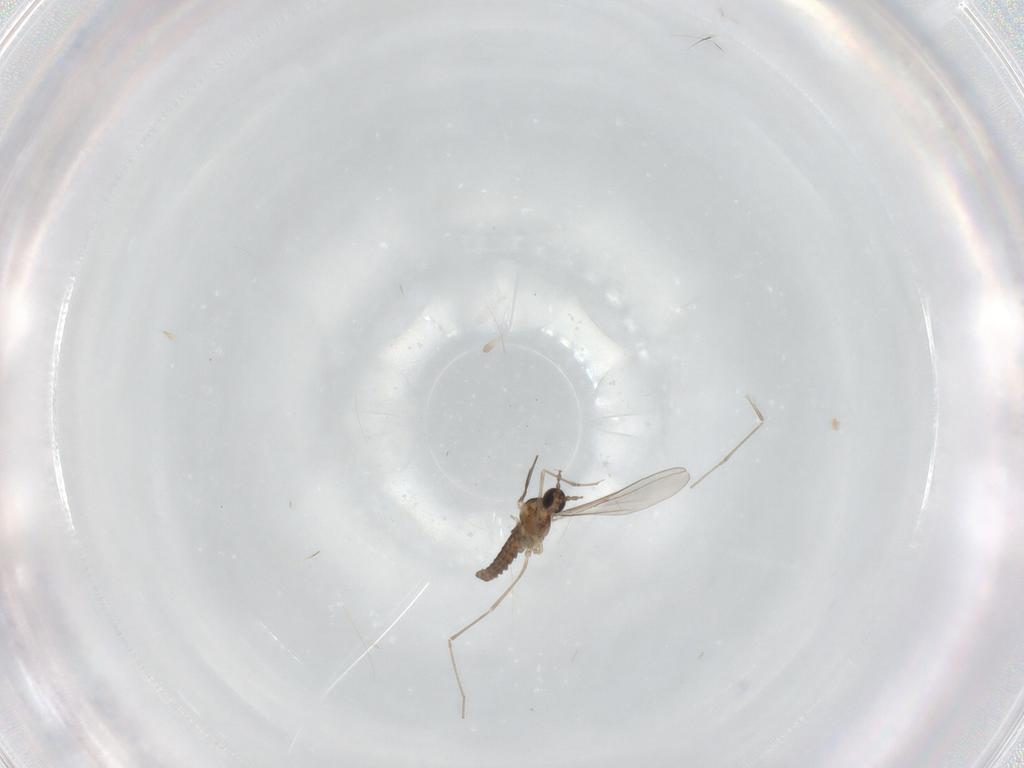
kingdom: Animalia
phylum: Arthropoda
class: Insecta
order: Diptera
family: Cecidomyiidae
